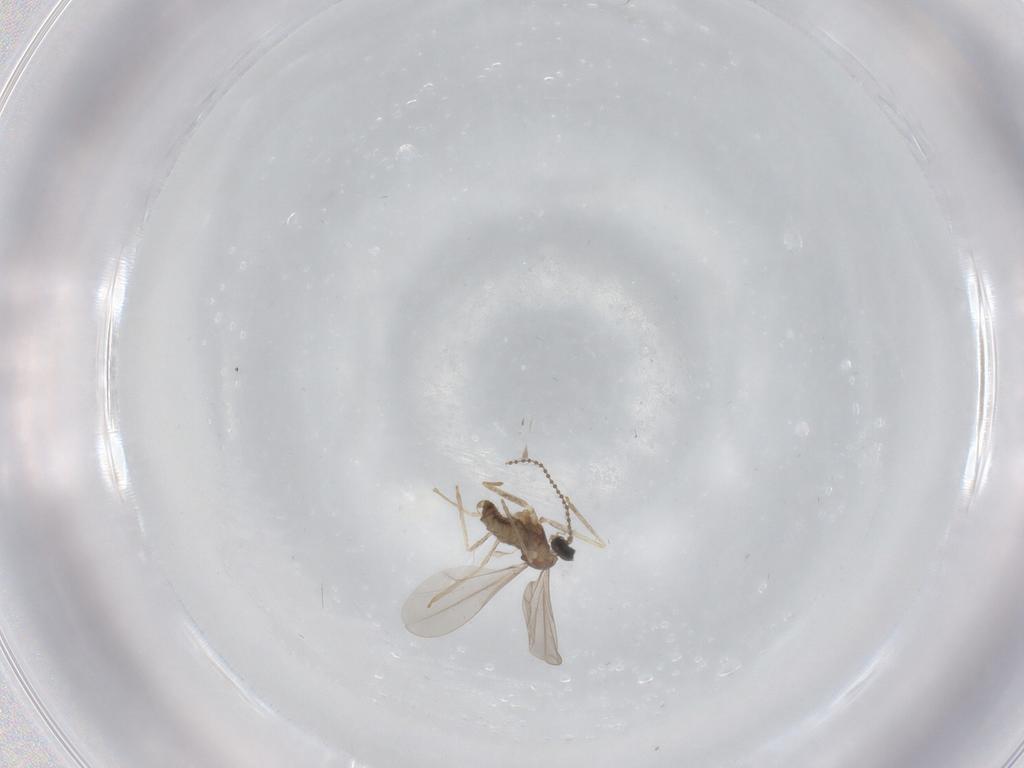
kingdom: Animalia
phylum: Arthropoda
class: Insecta
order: Diptera
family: Cecidomyiidae
